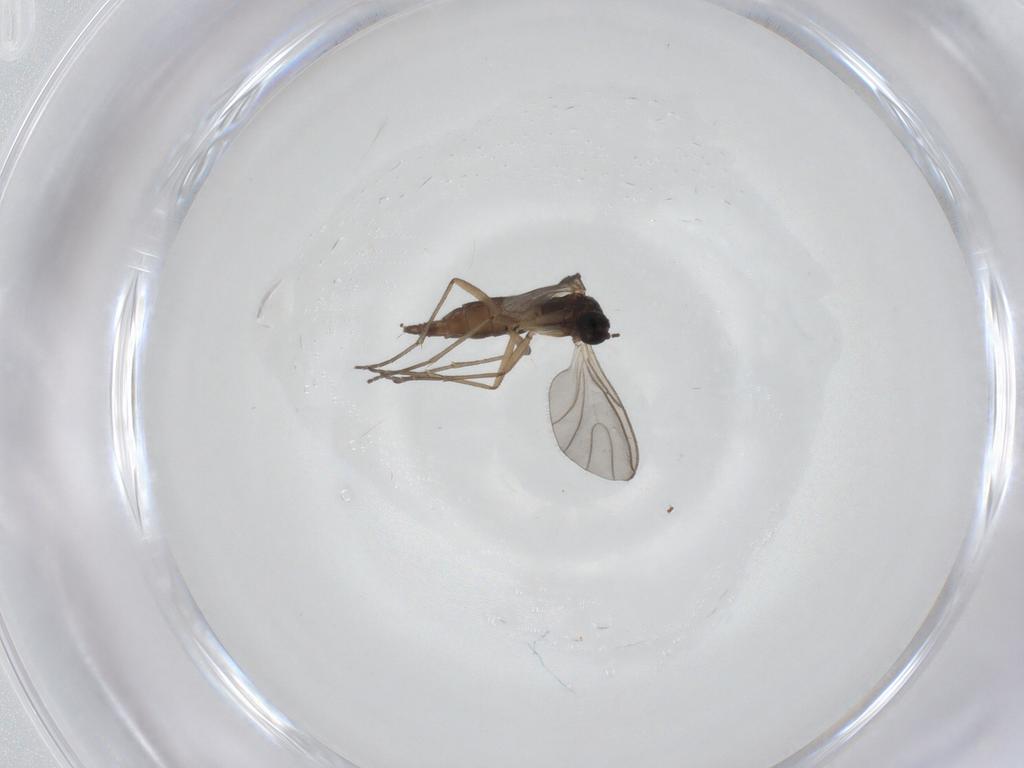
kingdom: Animalia
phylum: Arthropoda
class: Insecta
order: Diptera
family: Sciaridae
